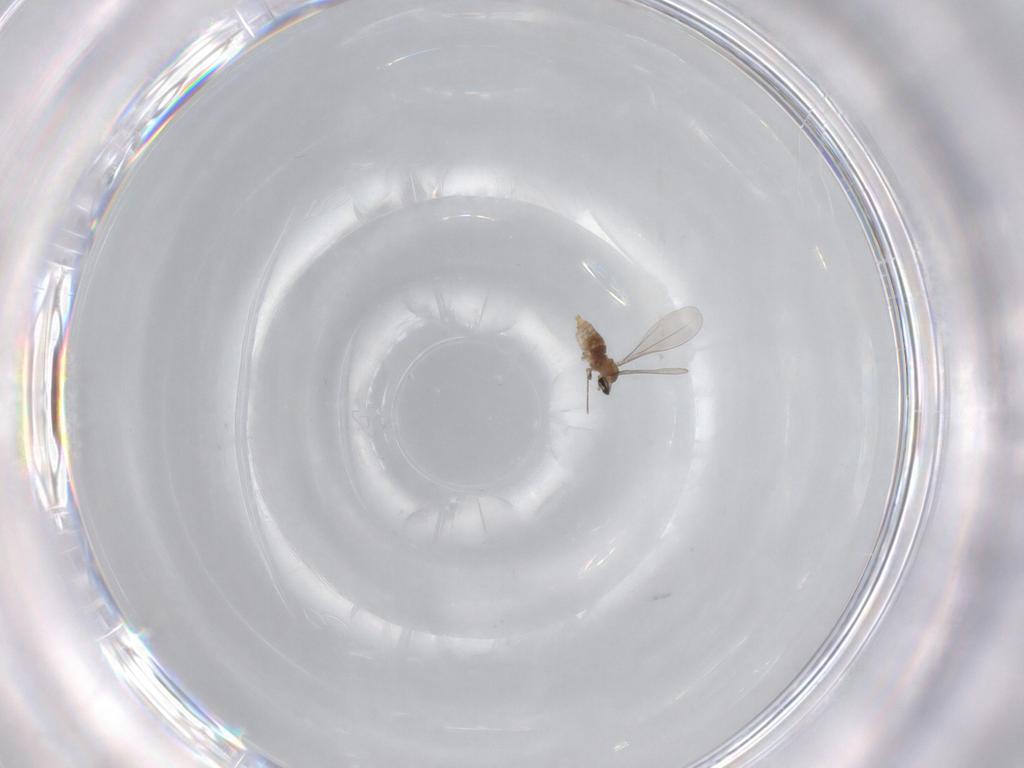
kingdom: Animalia
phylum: Arthropoda
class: Insecta
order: Diptera
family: Cecidomyiidae
